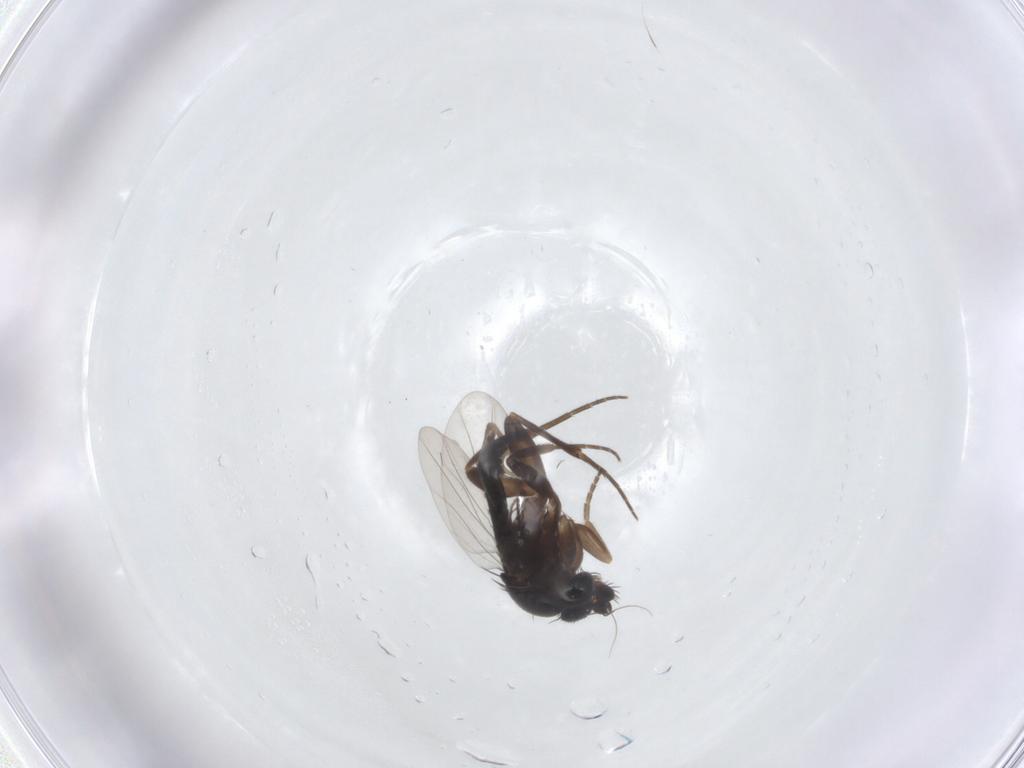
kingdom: Animalia
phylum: Arthropoda
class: Insecta
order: Diptera
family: Phoridae
